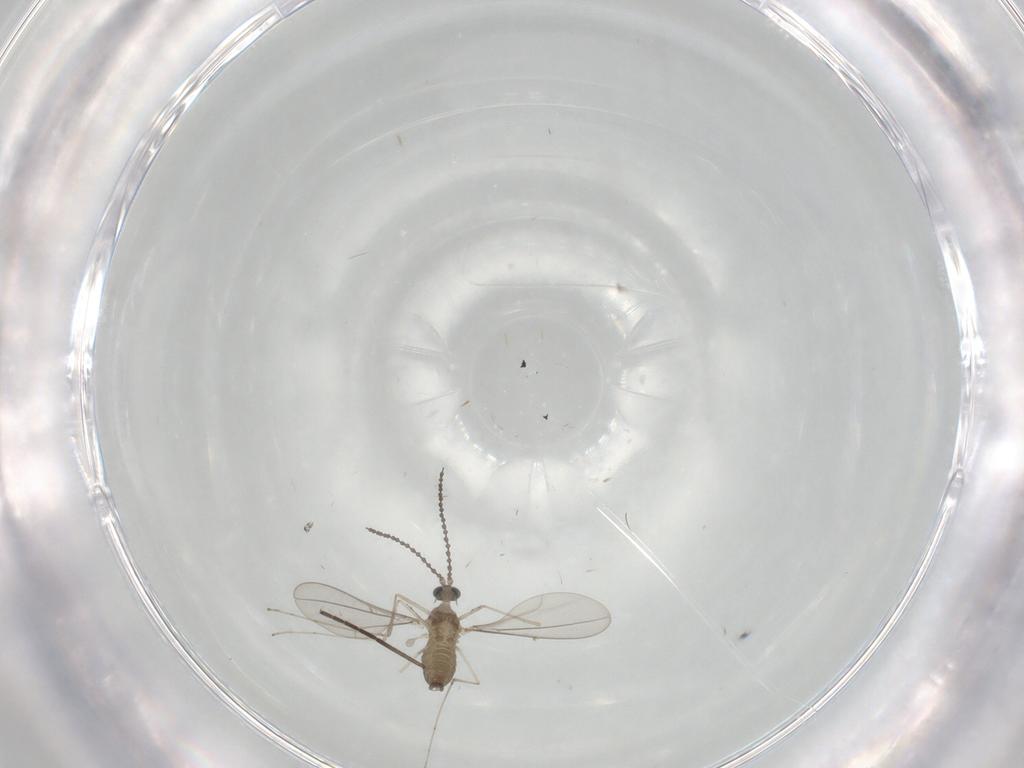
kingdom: Animalia
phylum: Arthropoda
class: Insecta
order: Diptera
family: Cecidomyiidae
